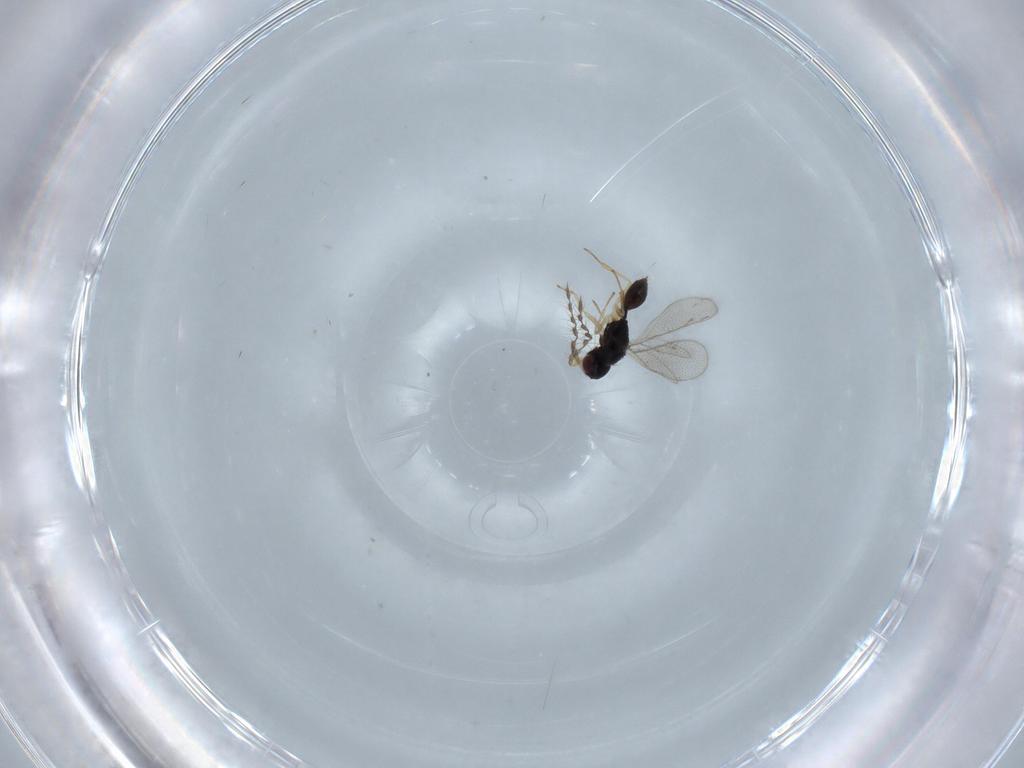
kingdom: Animalia
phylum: Arthropoda
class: Insecta
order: Hymenoptera
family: Eulophidae
